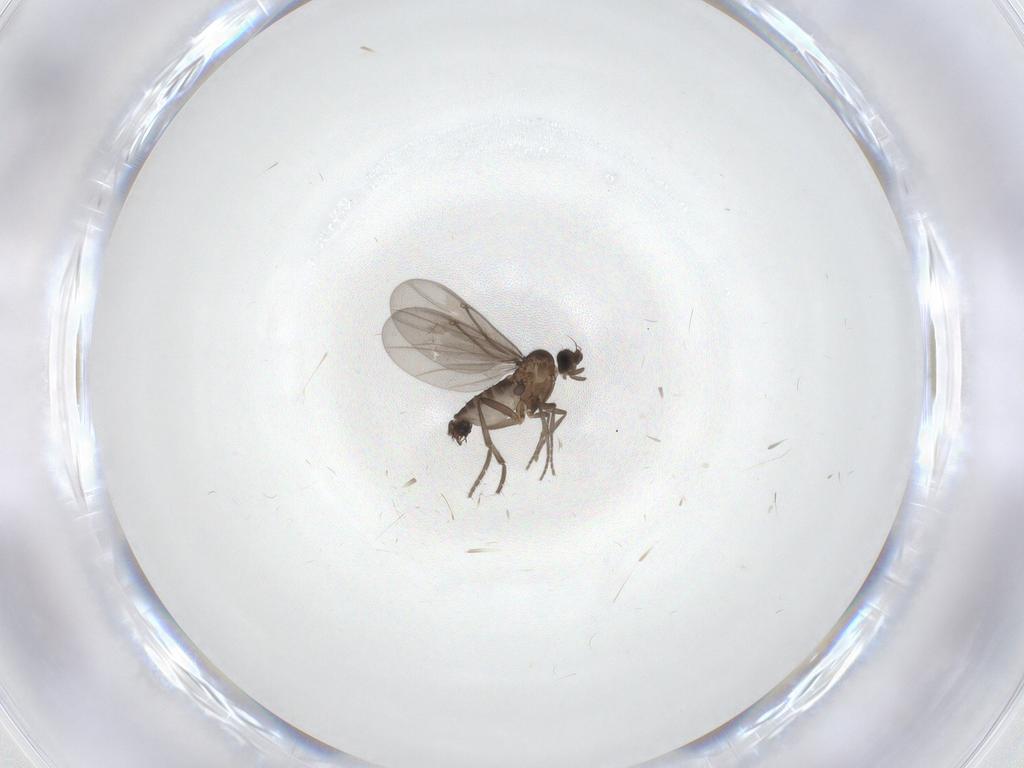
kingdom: Animalia
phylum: Arthropoda
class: Insecta
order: Diptera
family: Phoridae
